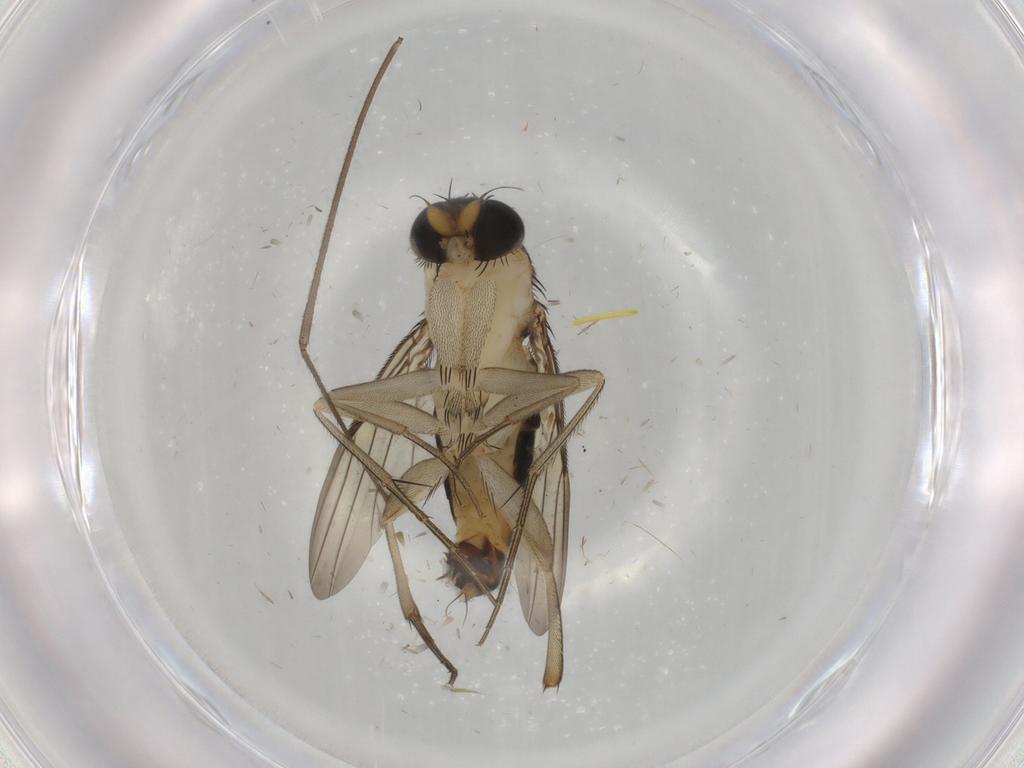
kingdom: Animalia
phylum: Arthropoda
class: Insecta
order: Diptera
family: Phoridae
